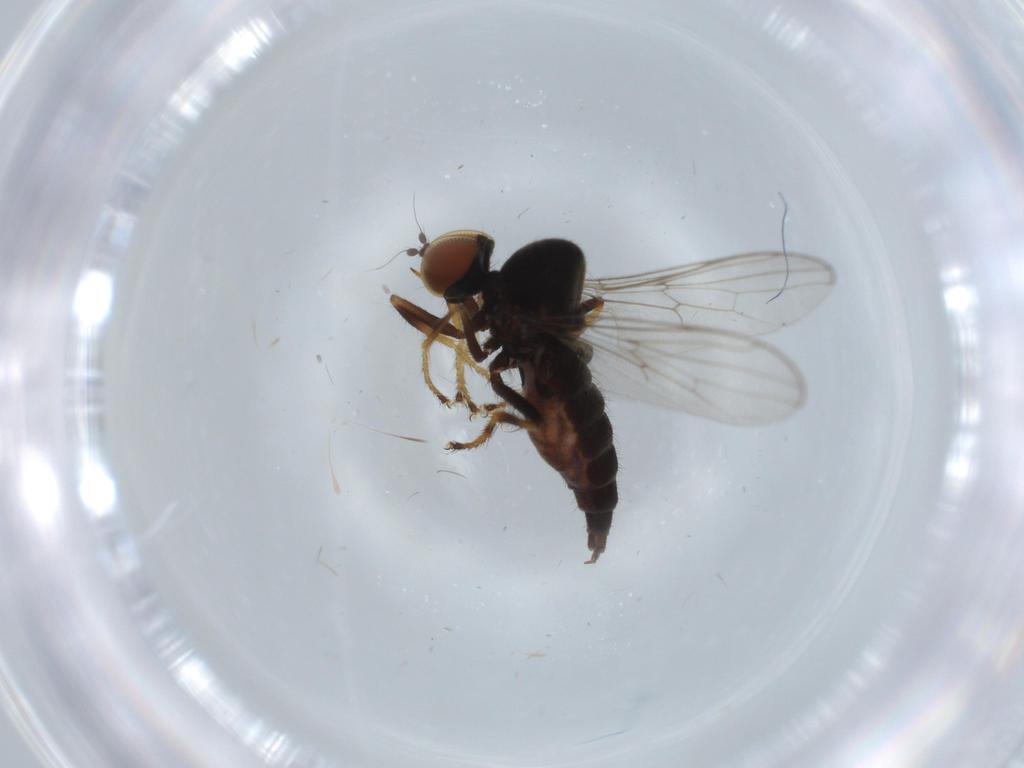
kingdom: Animalia
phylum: Arthropoda
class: Insecta
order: Diptera
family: Hybotidae
